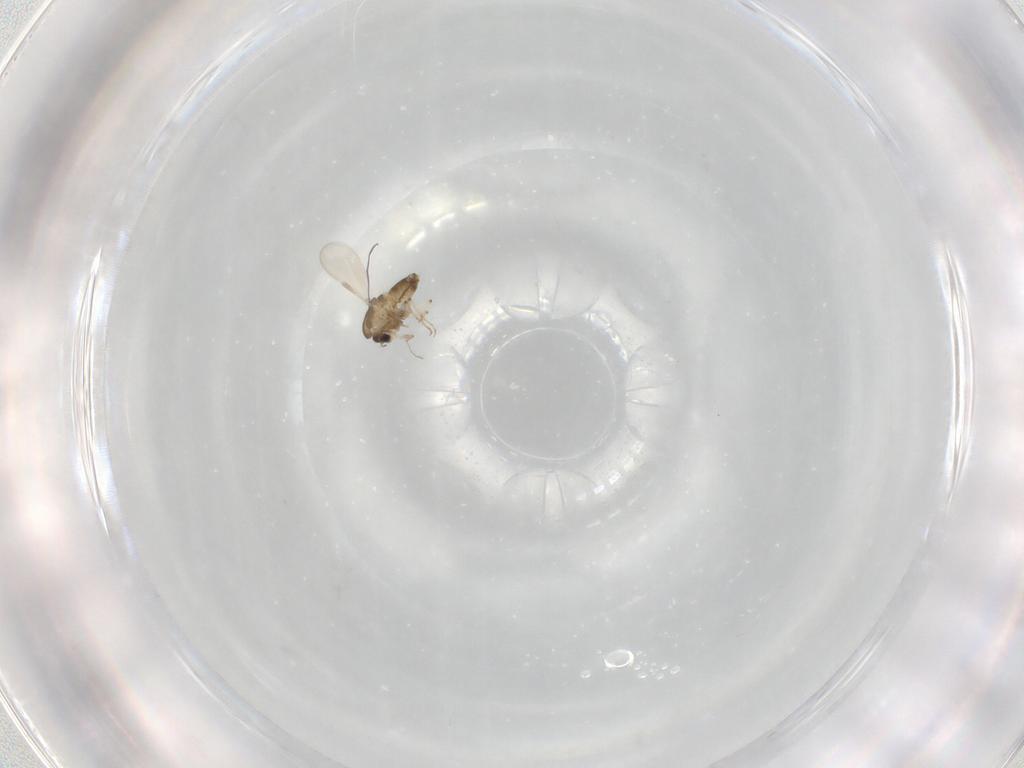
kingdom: Animalia
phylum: Arthropoda
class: Insecta
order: Diptera
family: Chironomidae
